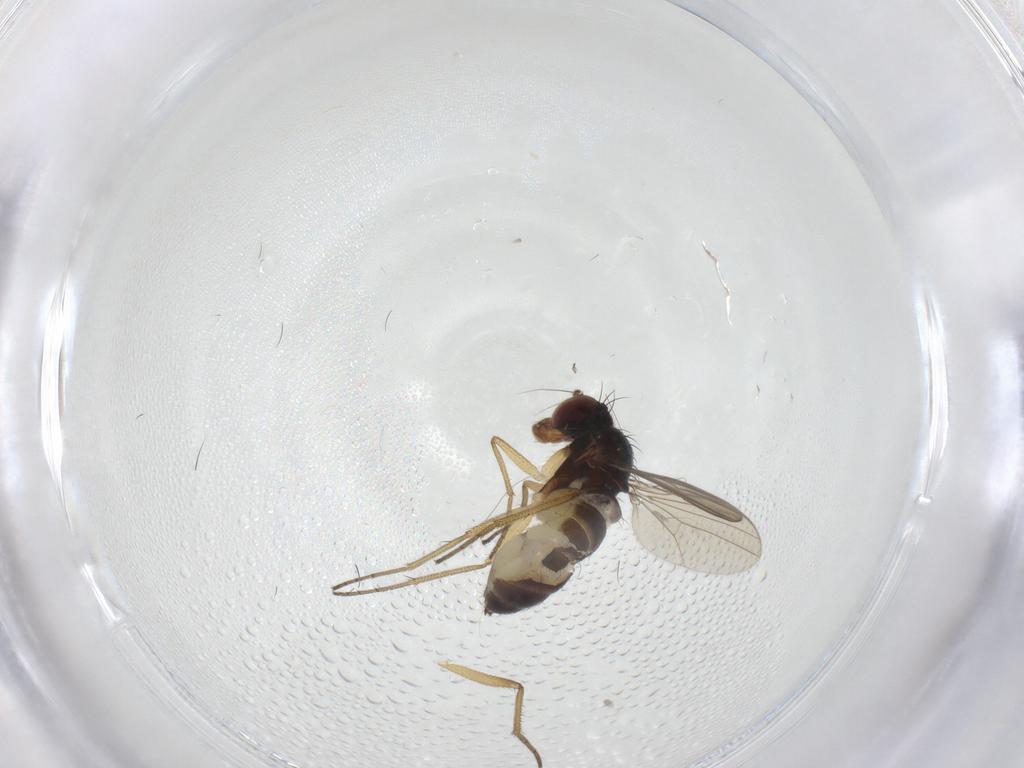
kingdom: Animalia
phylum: Arthropoda
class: Insecta
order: Diptera
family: Dolichopodidae
